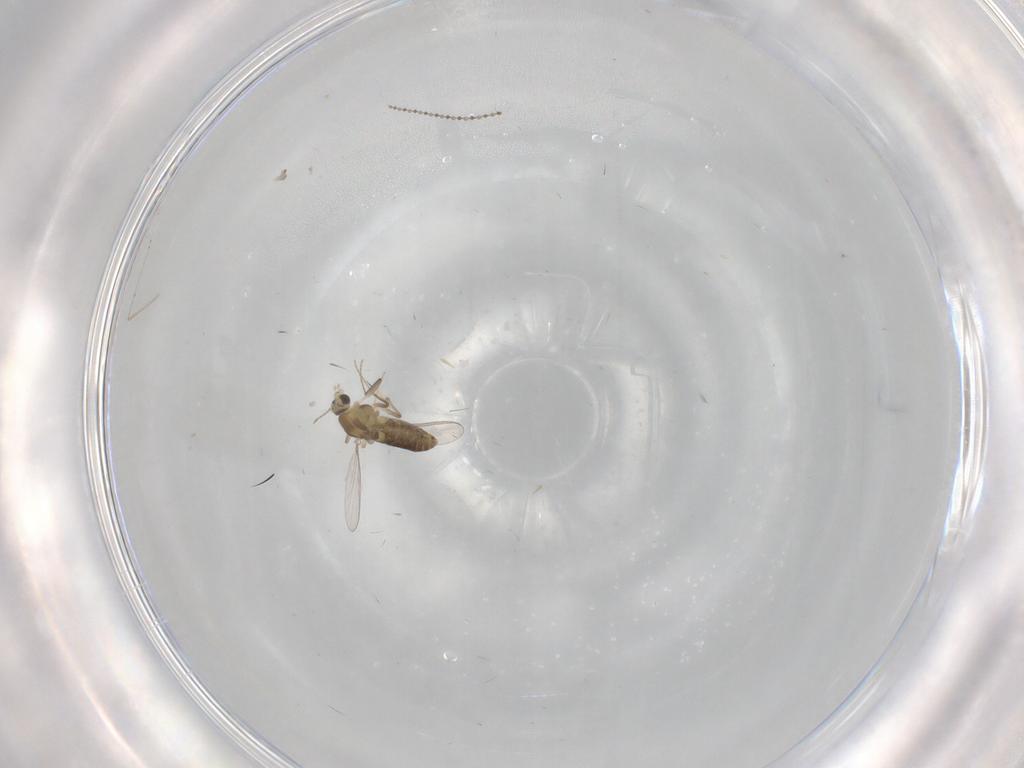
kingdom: Animalia
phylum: Arthropoda
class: Insecta
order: Diptera
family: Chironomidae
